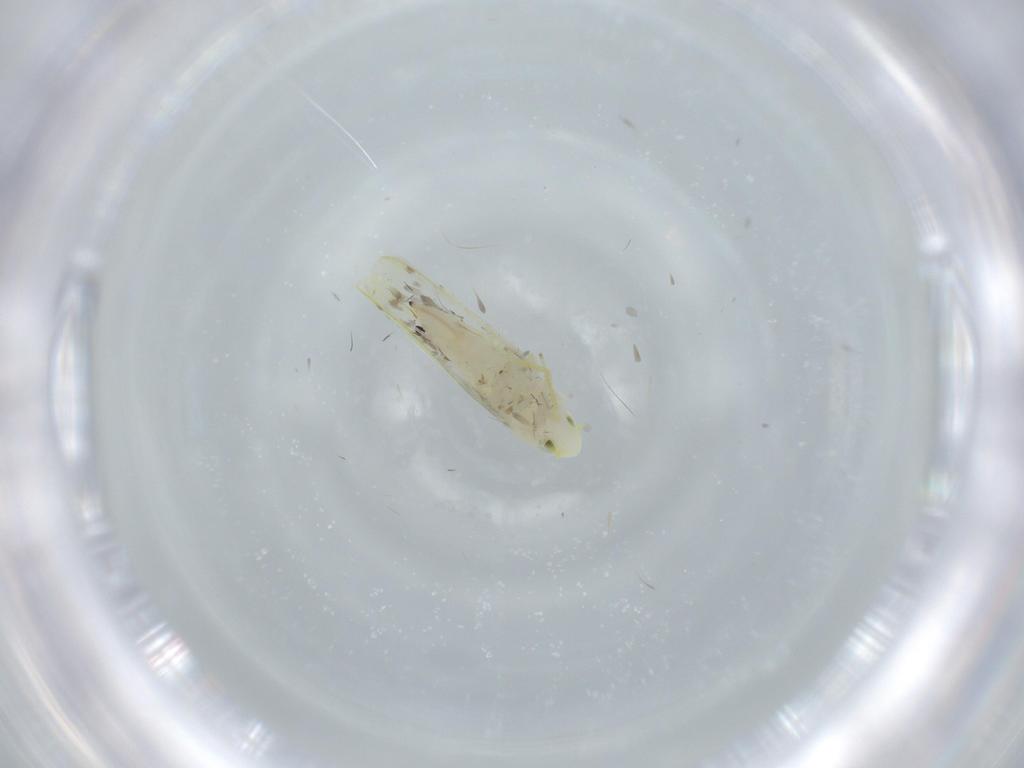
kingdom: Animalia
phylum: Arthropoda
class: Insecta
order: Hemiptera
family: Cicadellidae
